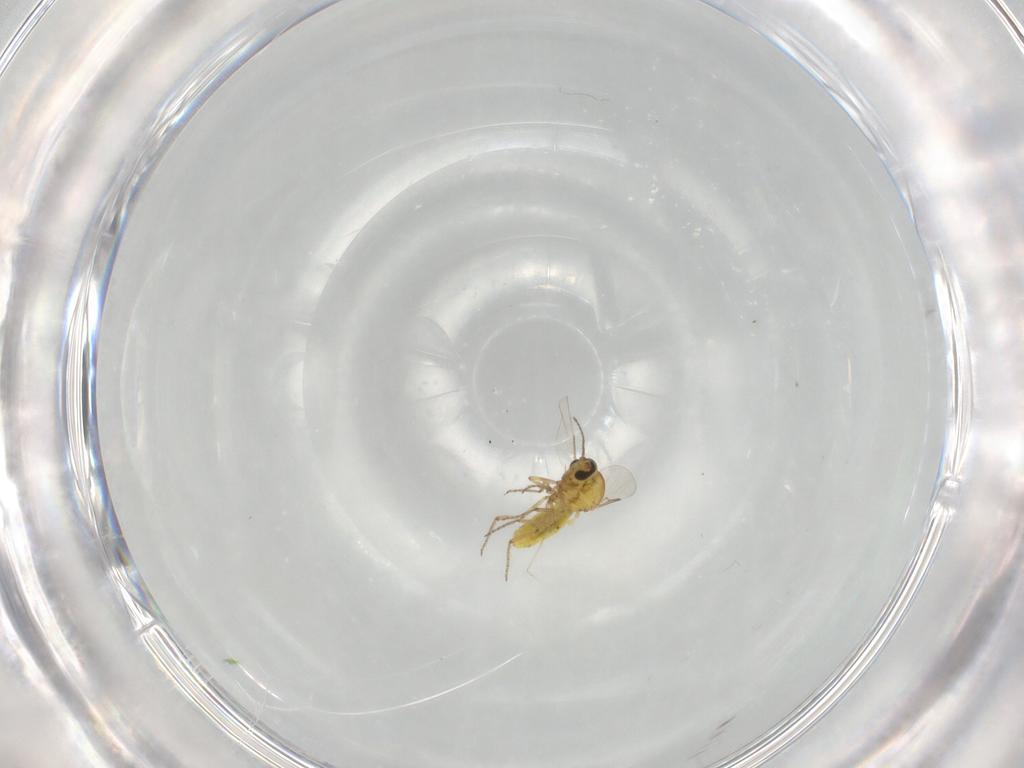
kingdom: Animalia
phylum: Arthropoda
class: Insecta
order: Diptera
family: Ceratopogonidae
